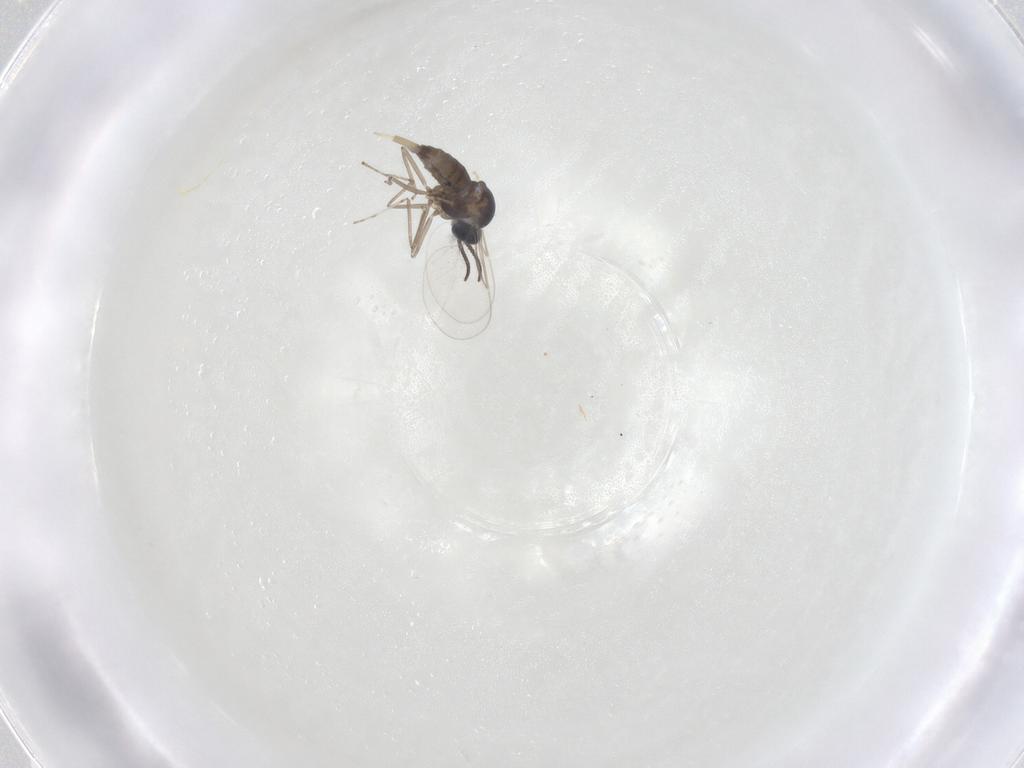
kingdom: Animalia
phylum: Arthropoda
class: Insecta
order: Diptera
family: Cecidomyiidae
